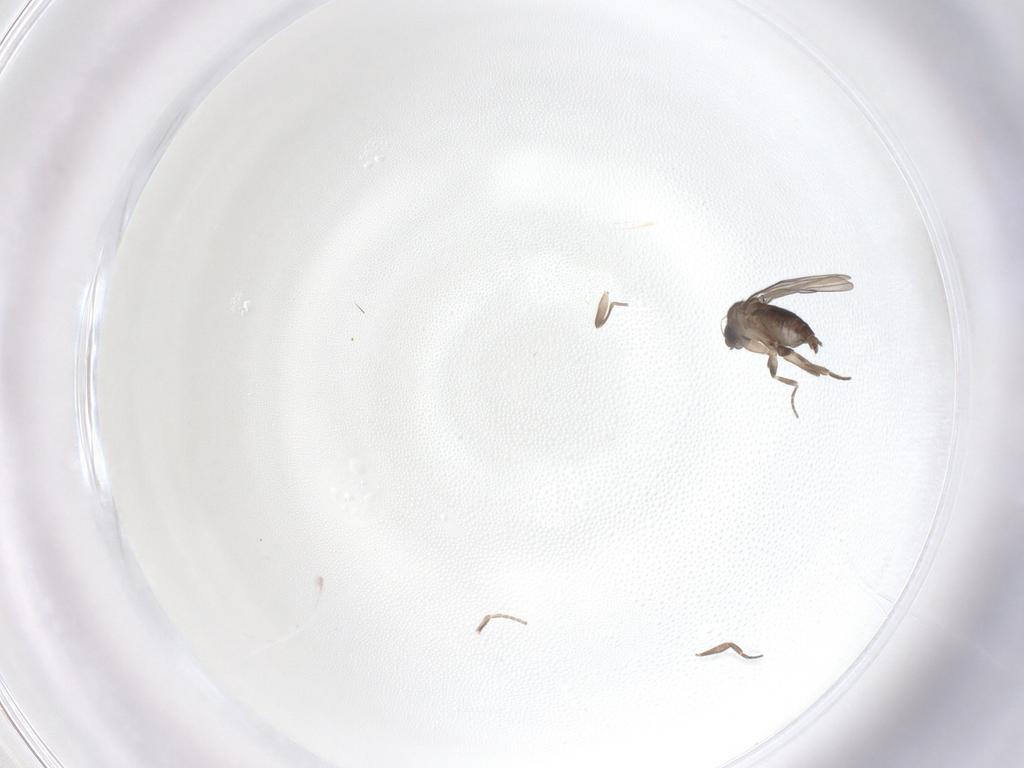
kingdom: Animalia
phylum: Arthropoda
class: Insecta
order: Diptera
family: Phoridae
